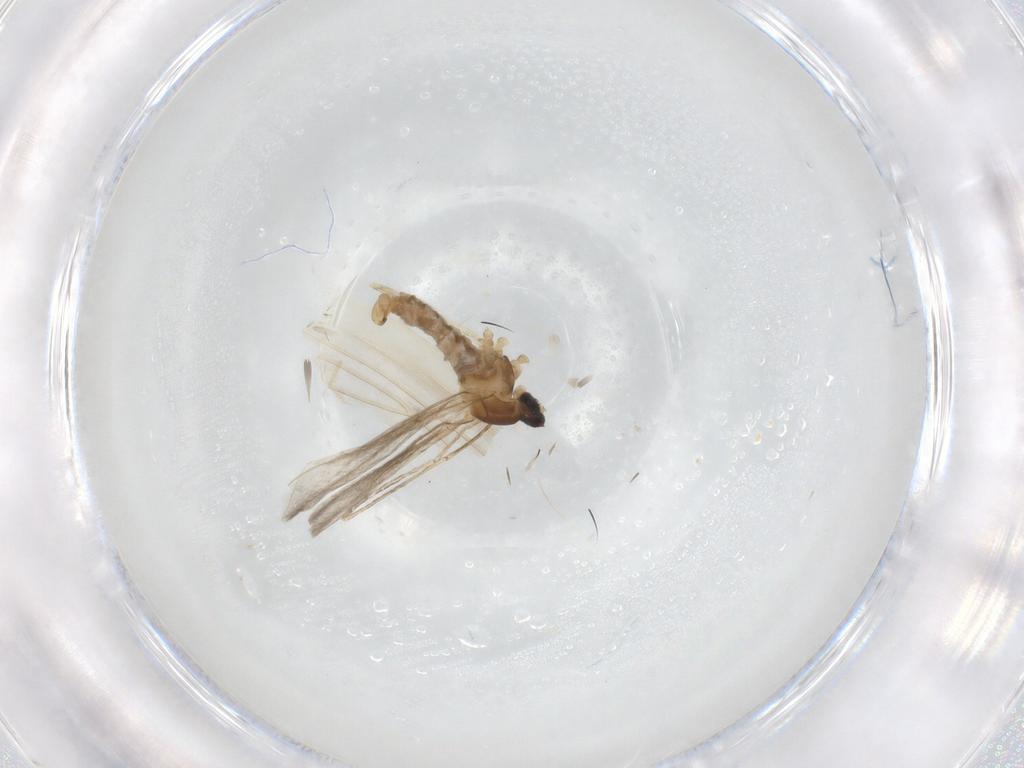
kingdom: Animalia
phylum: Arthropoda
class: Insecta
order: Diptera
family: Cecidomyiidae
